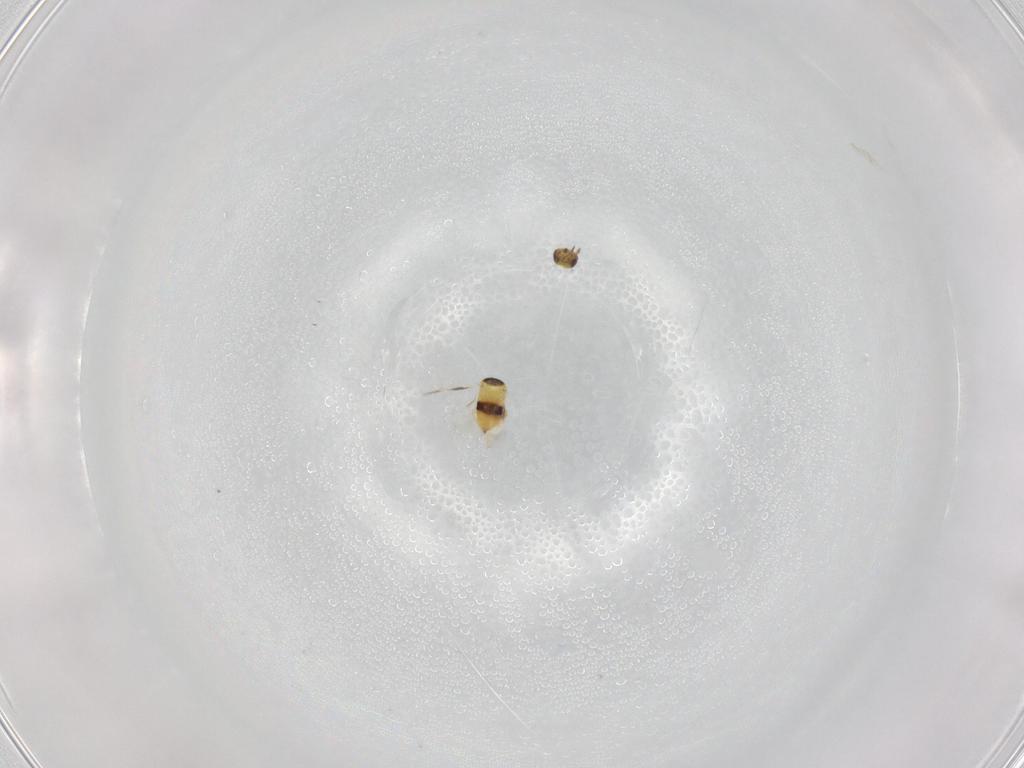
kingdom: Animalia
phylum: Arthropoda
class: Insecta
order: Hymenoptera
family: Signiphoridae
